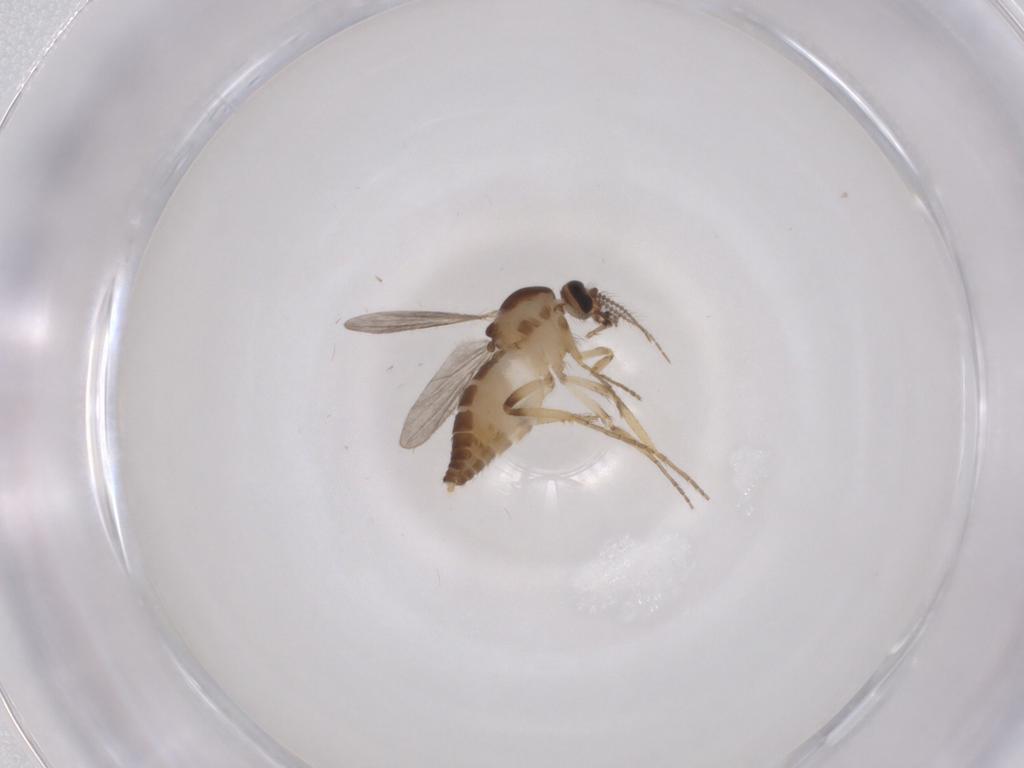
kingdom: Animalia
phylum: Arthropoda
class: Insecta
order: Diptera
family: Ceratopogonidae
